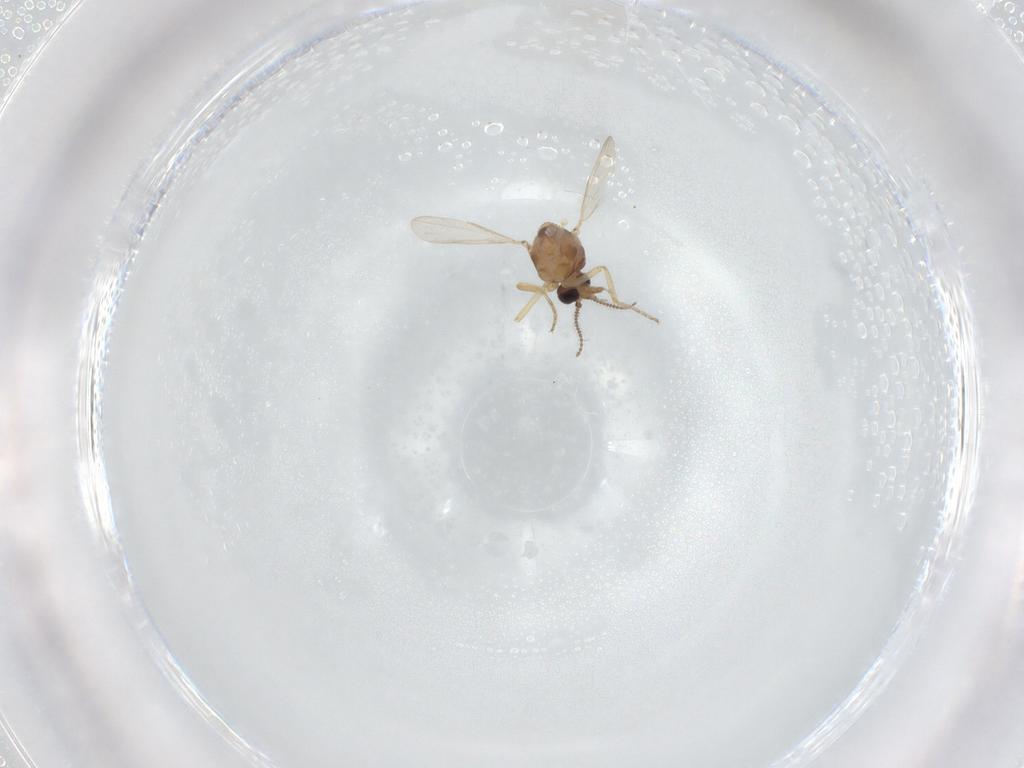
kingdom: Animalia
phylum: Arthropoda
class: Insecta
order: Diptera
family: Ceratopogonidae
